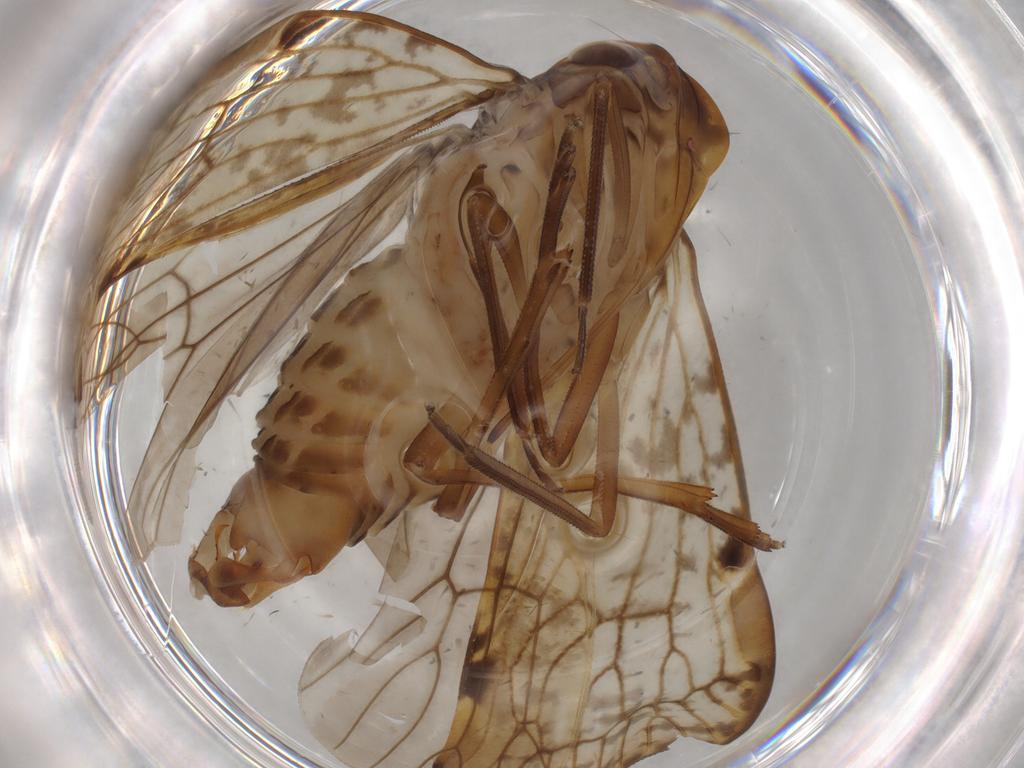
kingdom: Animalia
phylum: Arthropoda
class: Insecta
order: Hemiptera
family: Cixiidae
